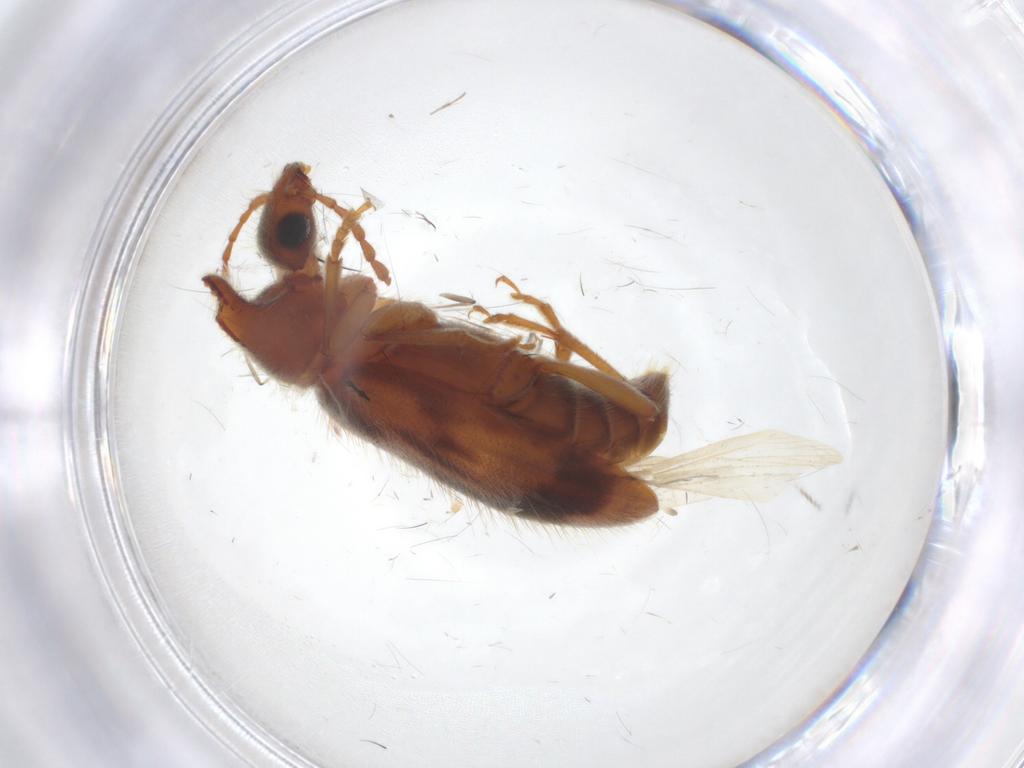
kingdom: Animalia
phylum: Arthropoda
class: Insecta
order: Coleoptera
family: Anthicidae
